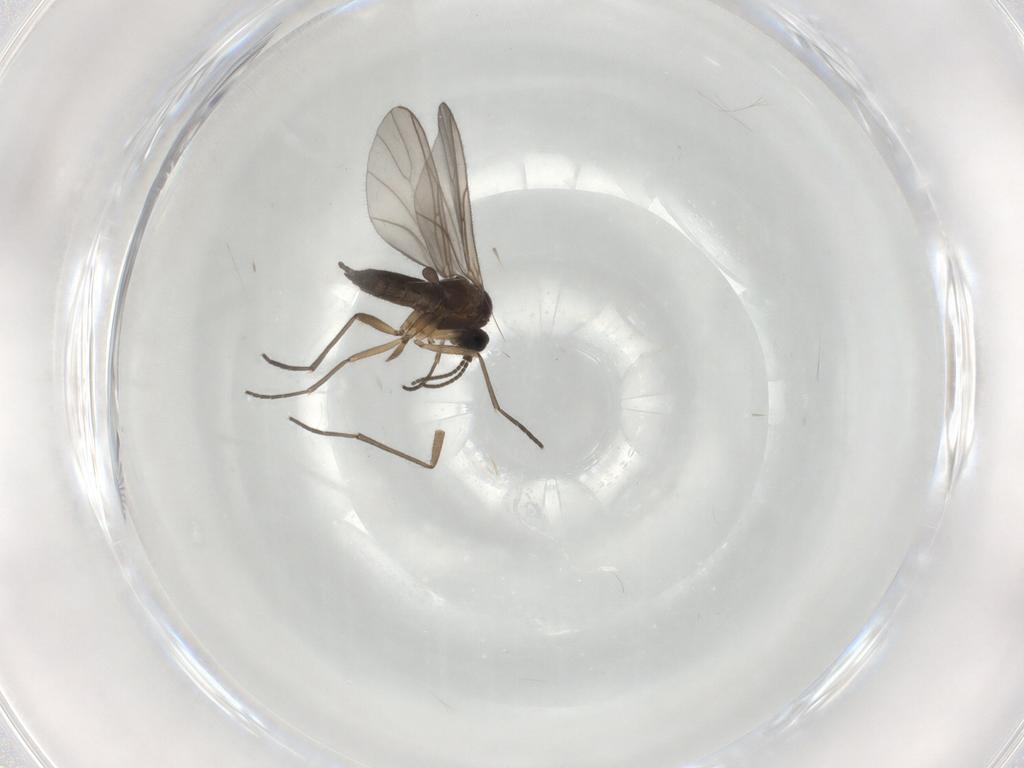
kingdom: Animalia
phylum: Arthropoda
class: Insecta
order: Diptera
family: Sciaridae
